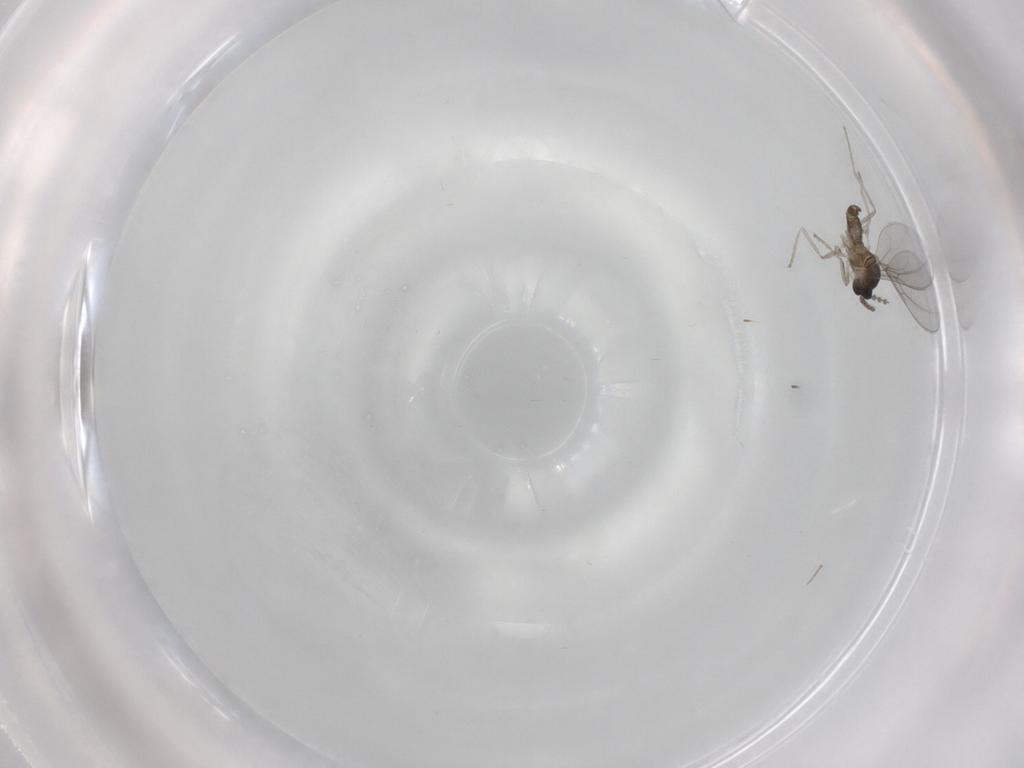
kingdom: Animalia
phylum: Arthropoda
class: Insecta
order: Diptera
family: Cecidomyiidae
